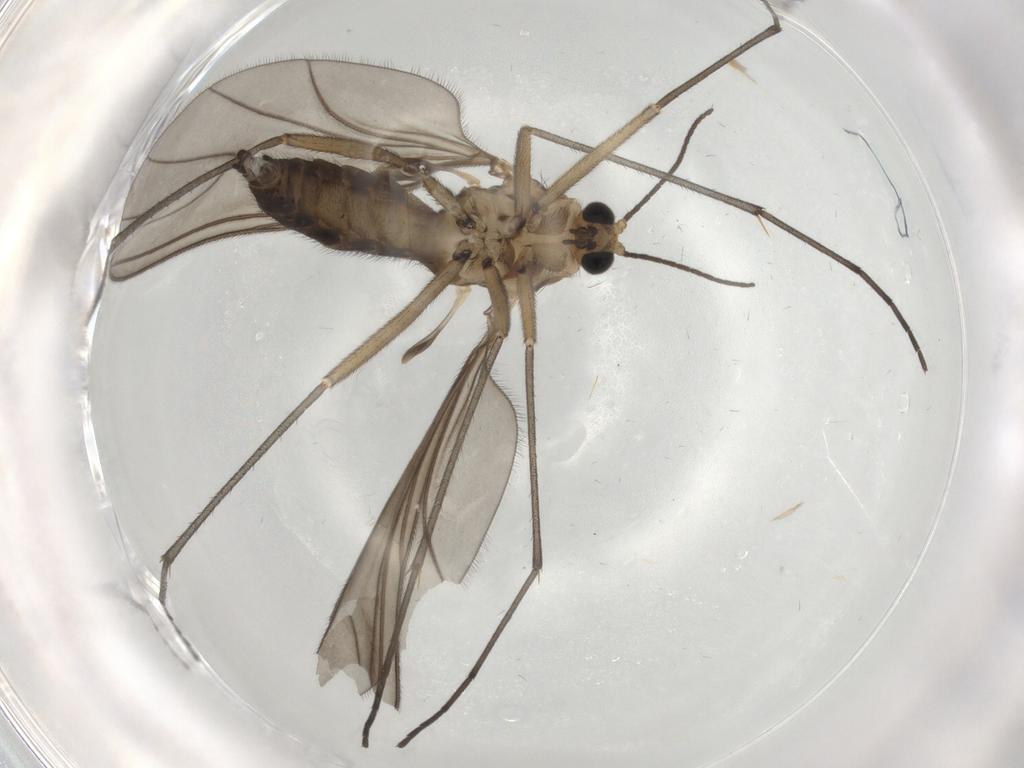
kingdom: Animalia
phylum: Arthropoda
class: Insecta
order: Diptera
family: Sciaridae
